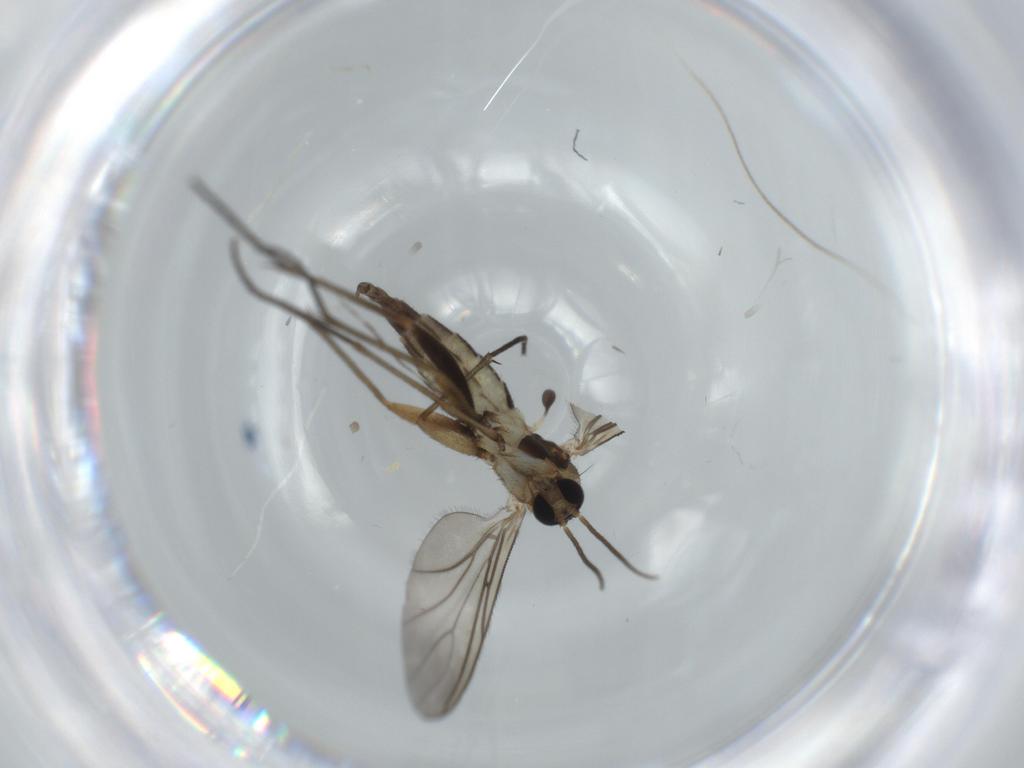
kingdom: Animalia
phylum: Arthropoda
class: Insecta
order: Diptera
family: Sciaridae
